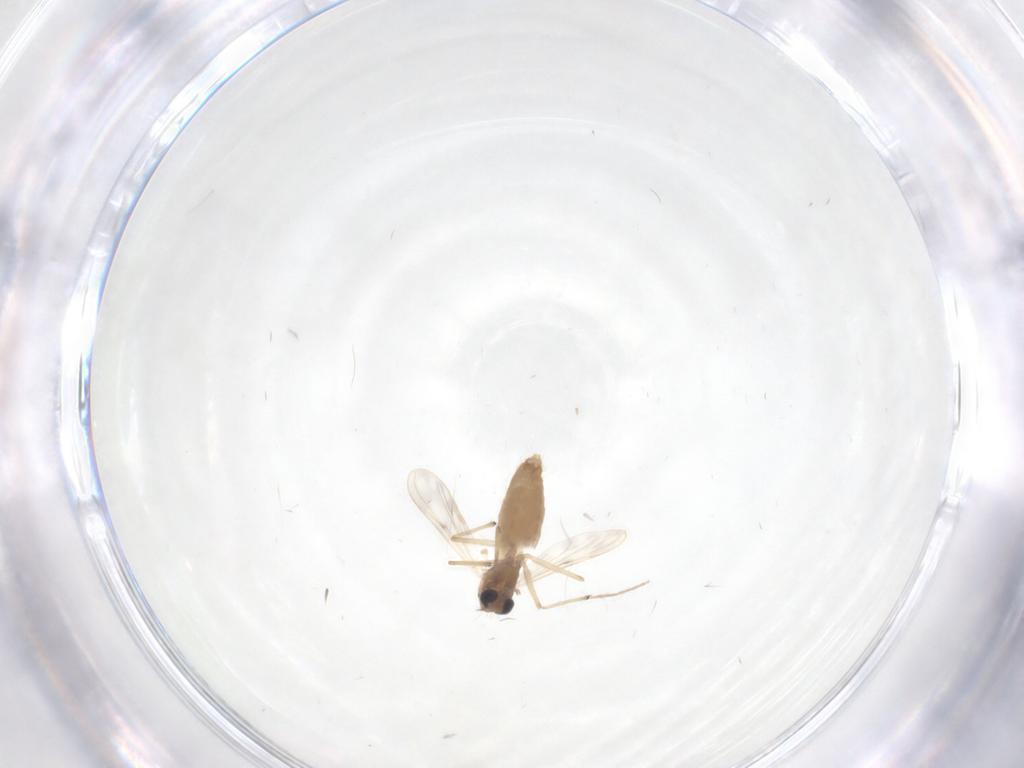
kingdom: Animalia
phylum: Arthropoda
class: Insecta
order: Diptera
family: Chironomidae
